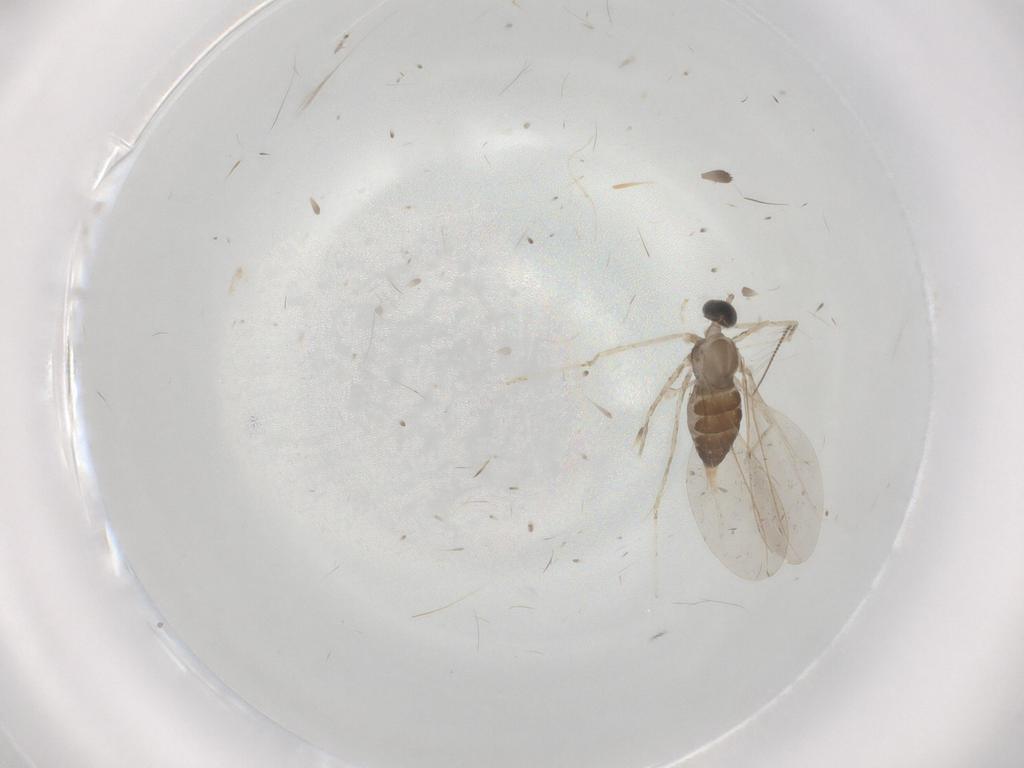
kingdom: Animalia
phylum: Arthropoda
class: Insecta
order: Diptera
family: Cecidomyiidae
